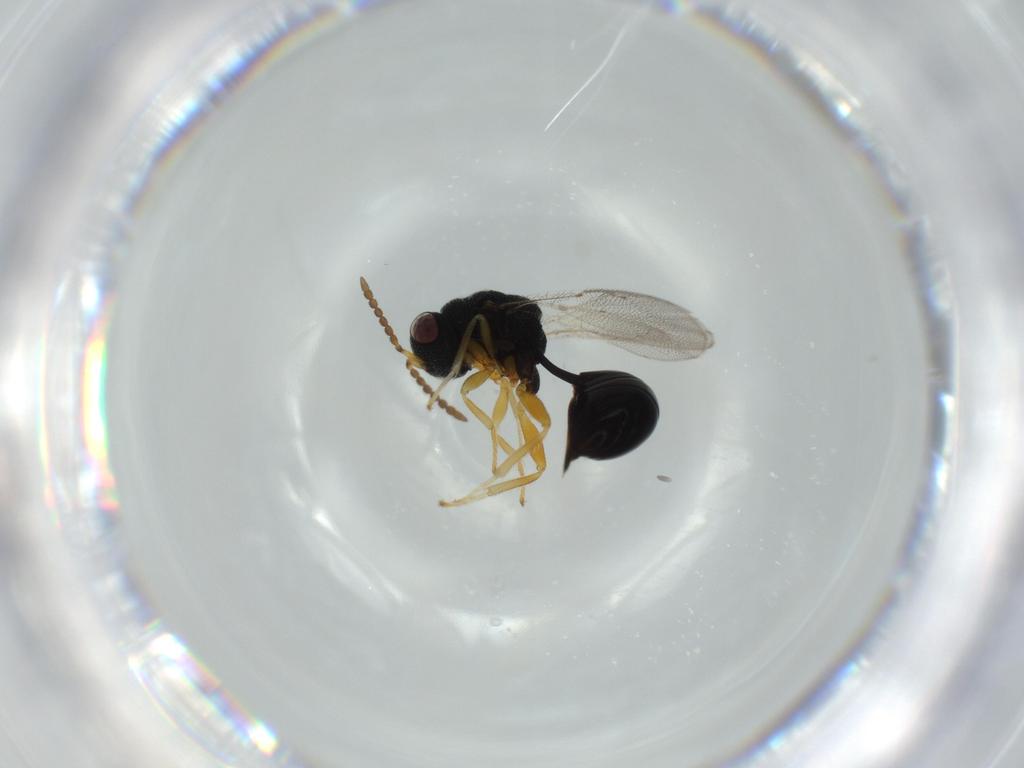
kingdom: Animalia
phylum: Arthropoda
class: Insecta
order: Hymenoptera
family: Eurytomidae
